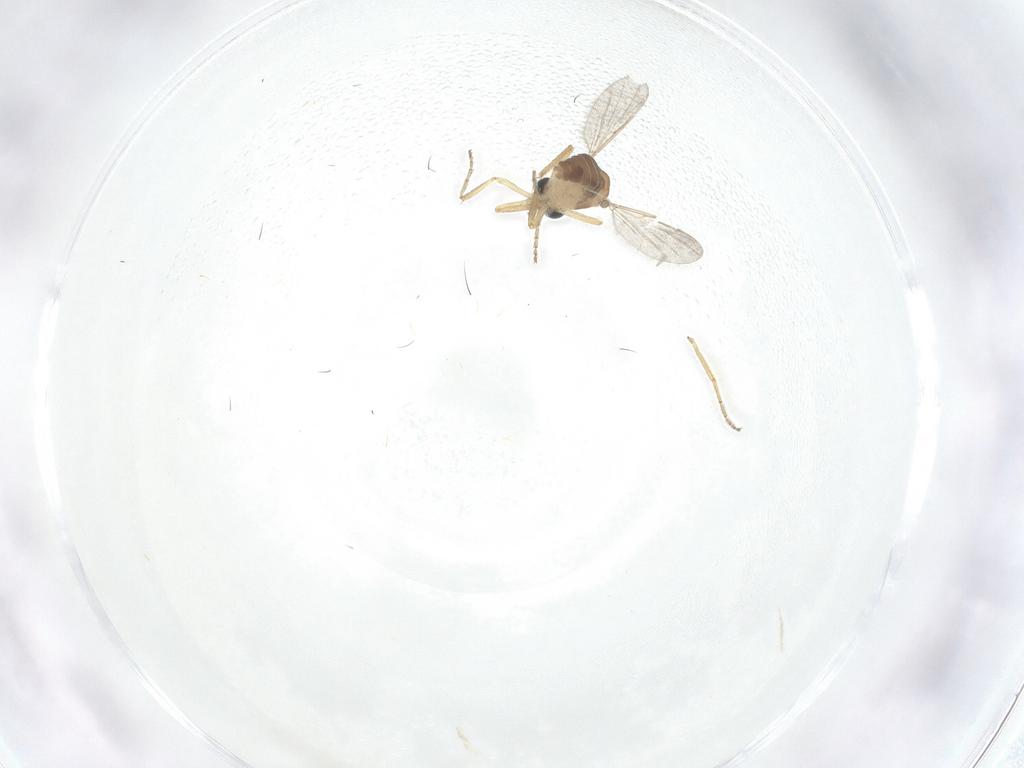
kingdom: Animalia
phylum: Arthropoda
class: Insecta
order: Diptera
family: Ceratopogonidae
